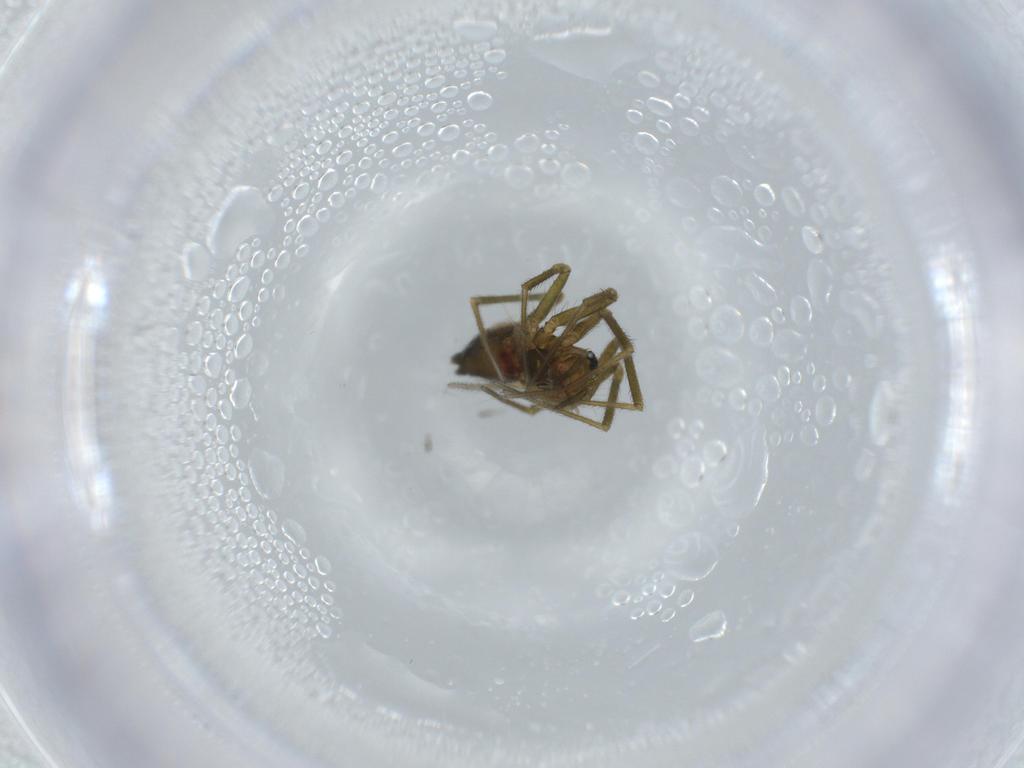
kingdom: Animalia
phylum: Arthropoda
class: Arachnida
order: Araneae
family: Linyphiidae
